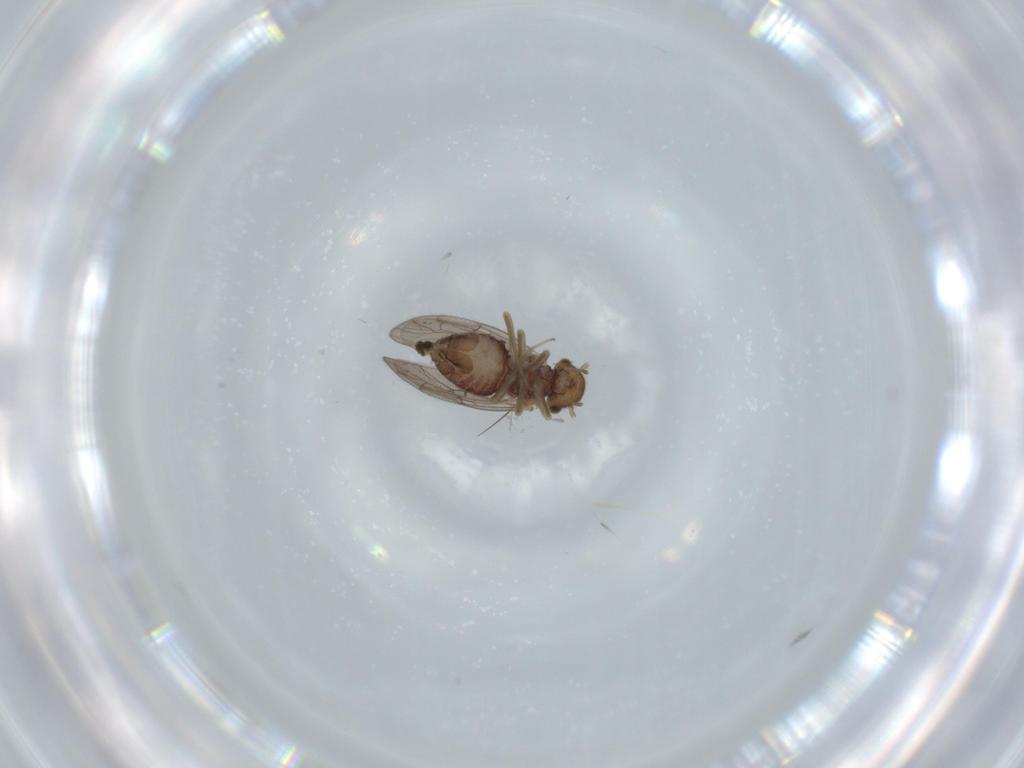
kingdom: Animalia
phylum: Arthropoda
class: Insecta
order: Psocodea
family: Ectopsocidae
